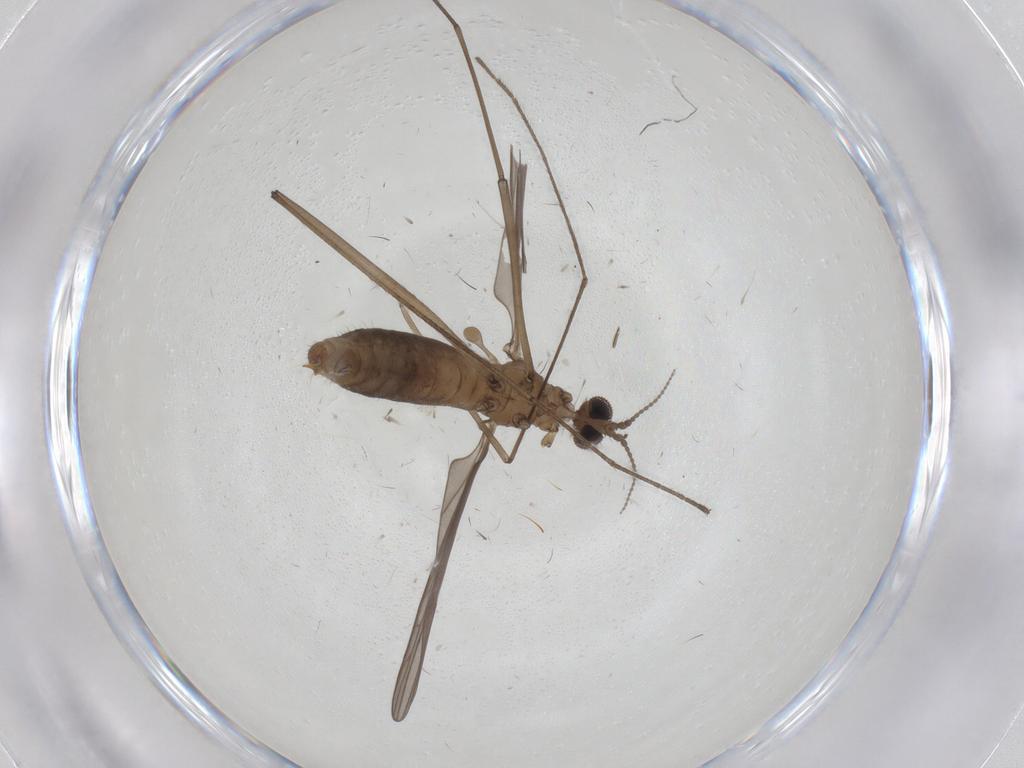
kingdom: Animalia
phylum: Arthropoda
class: Insecta
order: Diptera
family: Limoniidae
